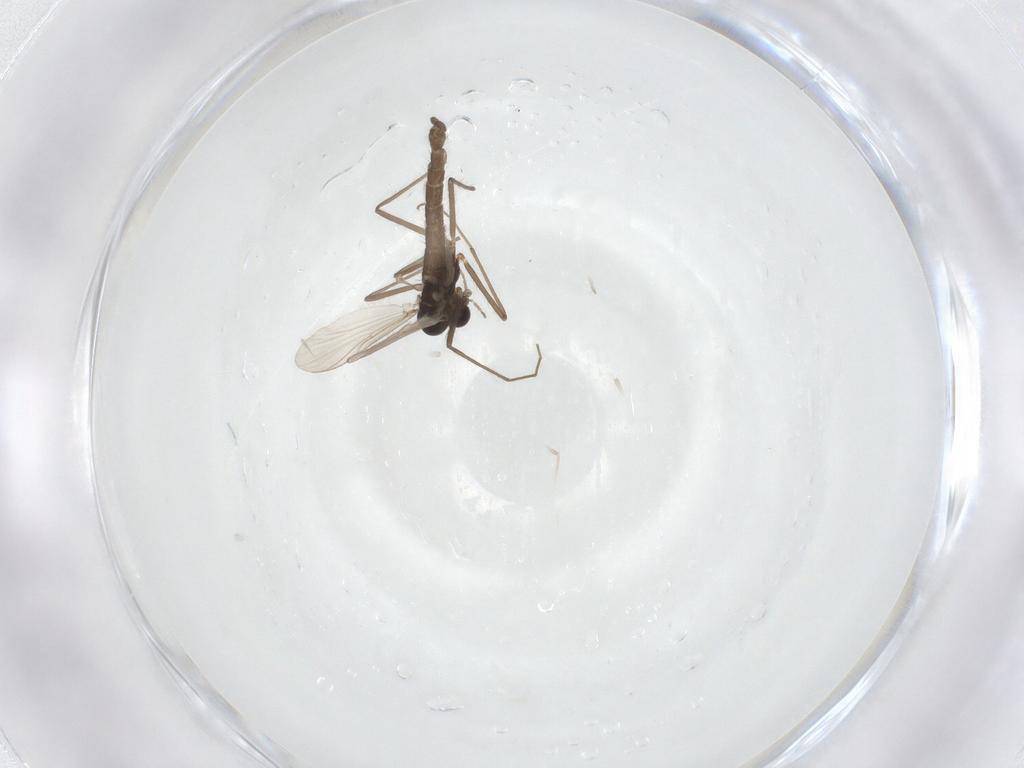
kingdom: Animalia
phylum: Arthropoda
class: Insecta
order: Diptera
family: Chironomidae
